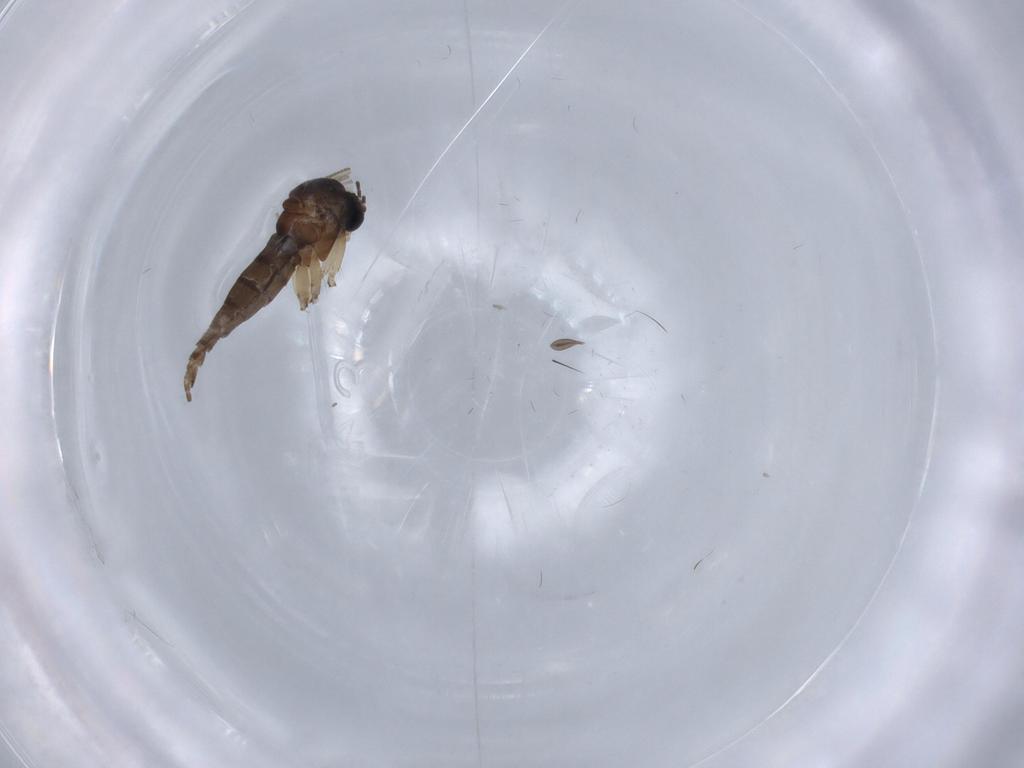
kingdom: Animalia
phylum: Arthropoda
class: Insecta
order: Diptera
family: Sciaridae
